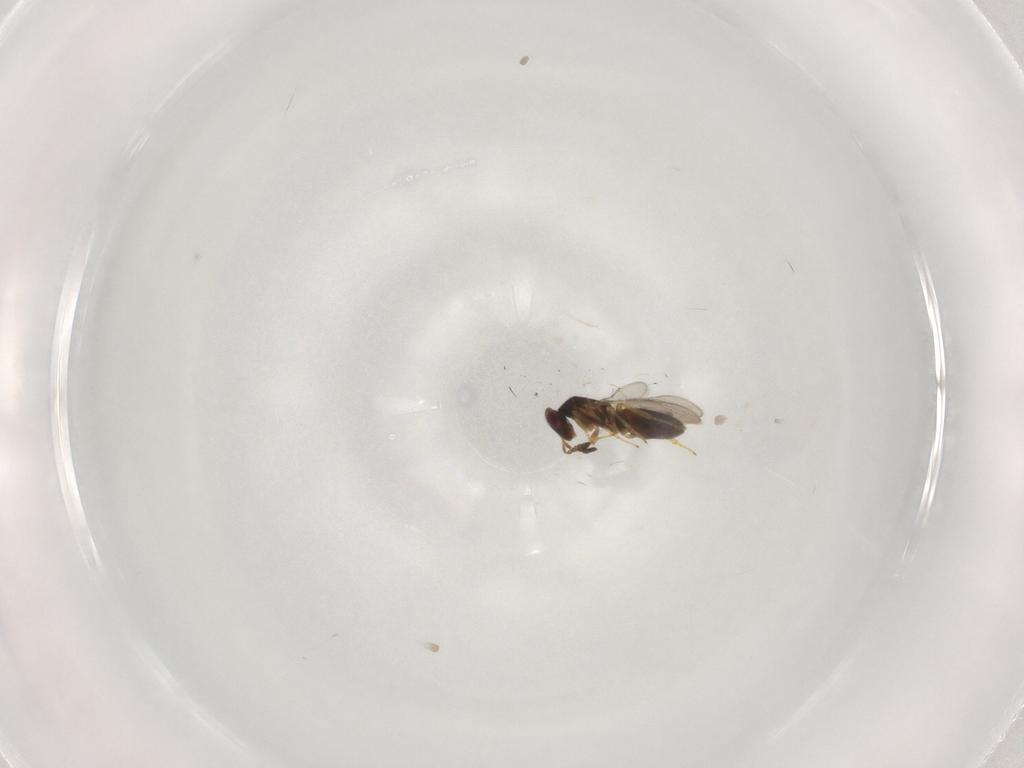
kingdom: Animalia
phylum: Arthropoda
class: Insecta
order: Hymenoptera
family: Eulophidae
